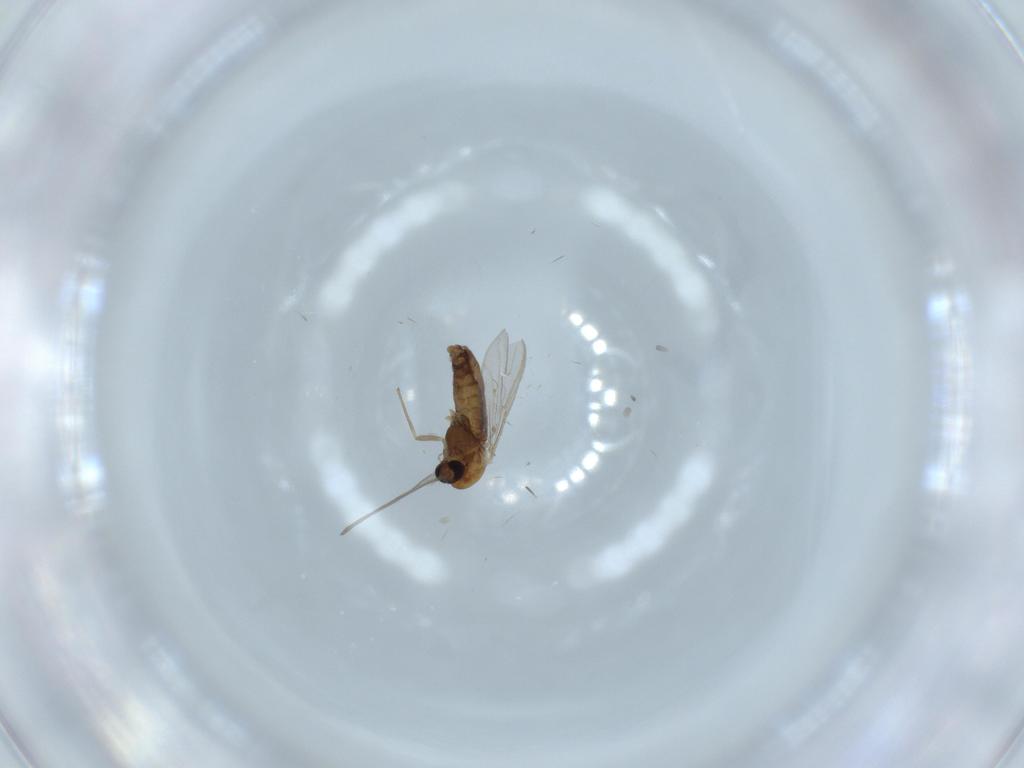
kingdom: Animalia
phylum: Arthropoda
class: Insecta
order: Diptera
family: Chironomidae
